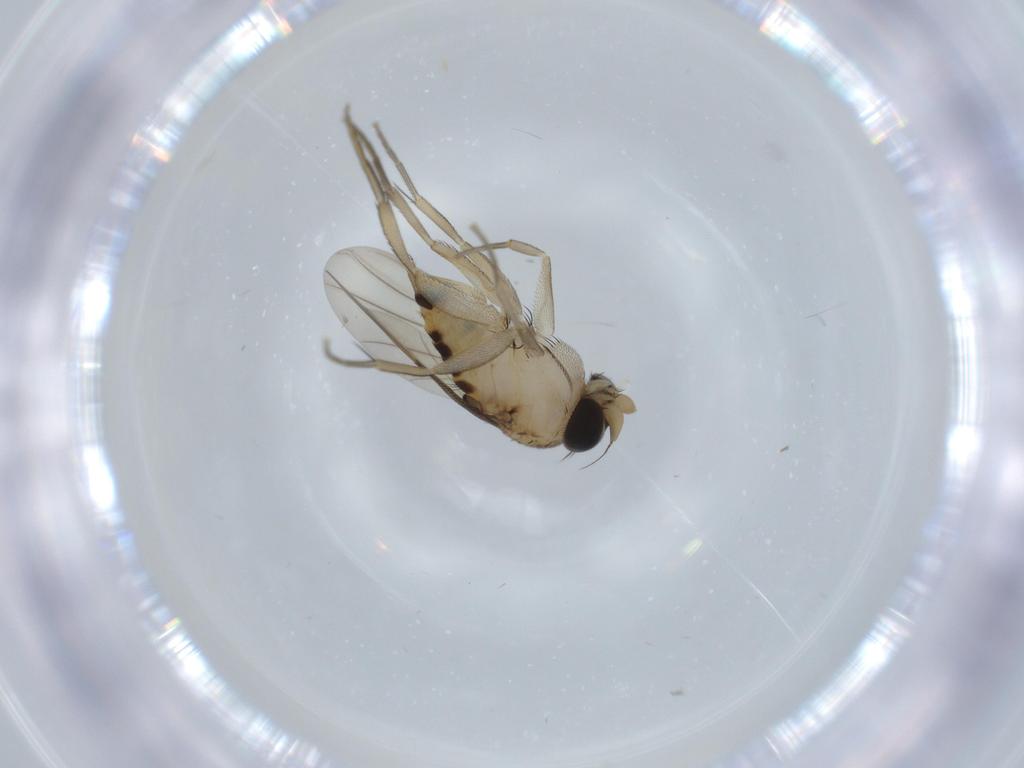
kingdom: Animalia
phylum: Arthropoda
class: Insecta
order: Diptera
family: Phoridae
